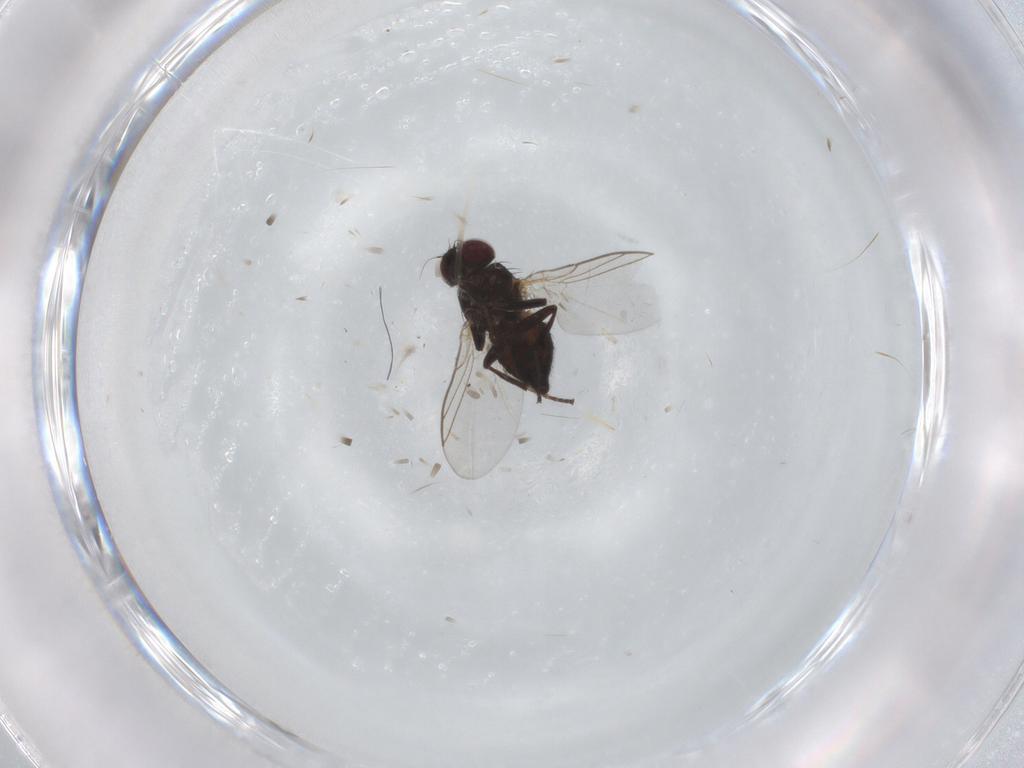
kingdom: Animalia
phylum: Arthropoda
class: Insecta
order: Diptera
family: Agromyzidae
